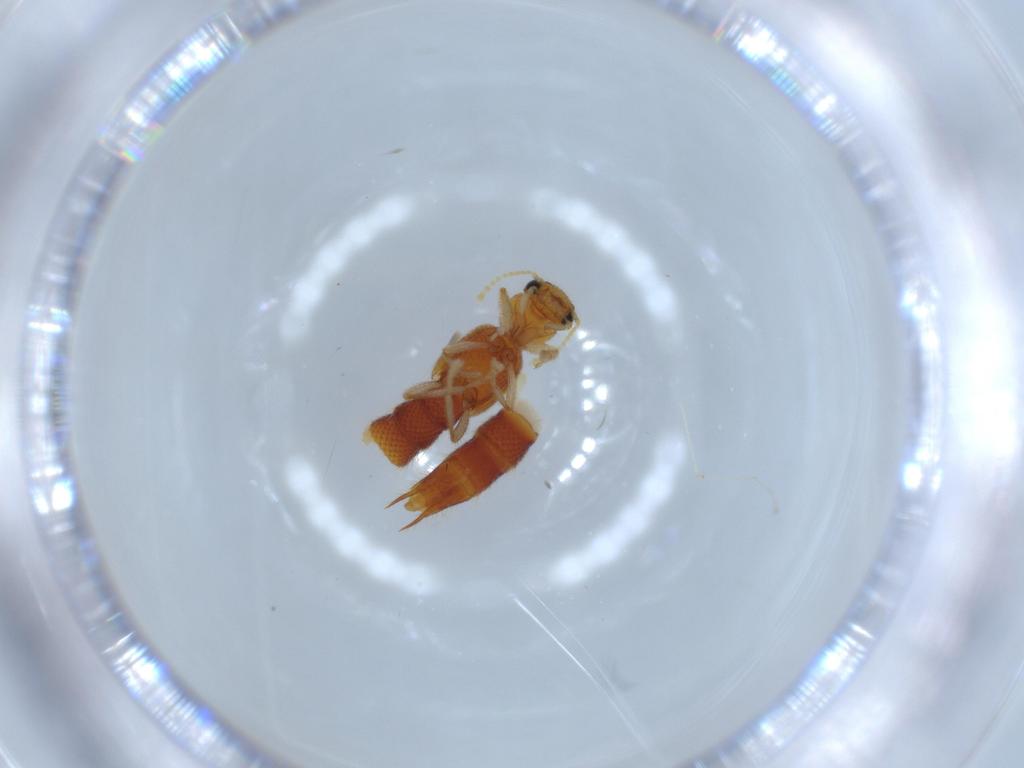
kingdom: Animalia
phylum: Arthropoda
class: Insecta
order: Coleoptera
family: Staphylinidae
